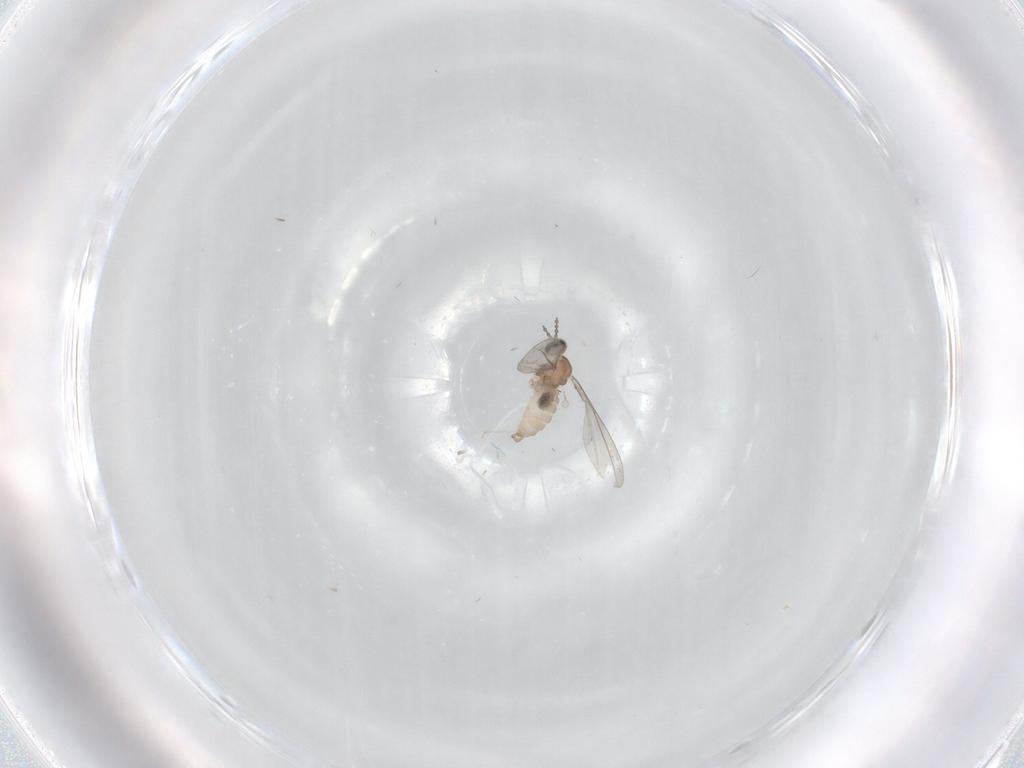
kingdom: Animalia
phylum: Arthropoda
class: Insecta
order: Diptera
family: Cecidomyiidae
